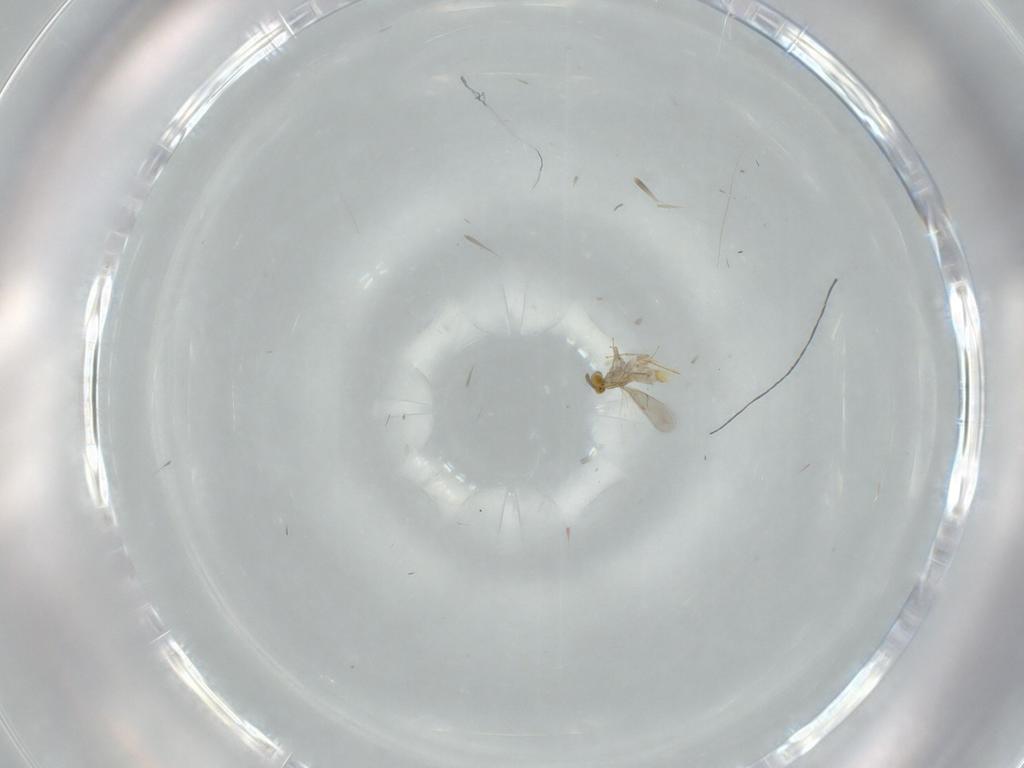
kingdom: Animalia
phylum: Arthropoda
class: Insecta
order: Hymenoptera
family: Aphelinidae
